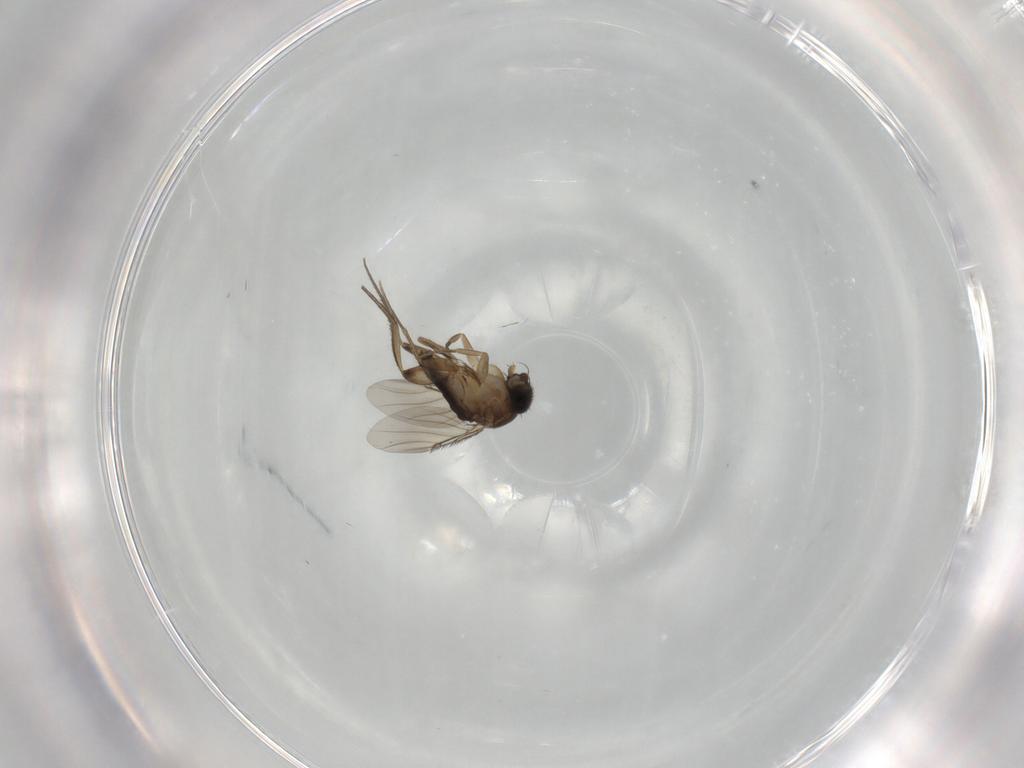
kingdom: Animalia
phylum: Arthropoda
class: Insecta
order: Diptera
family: Phoridae
